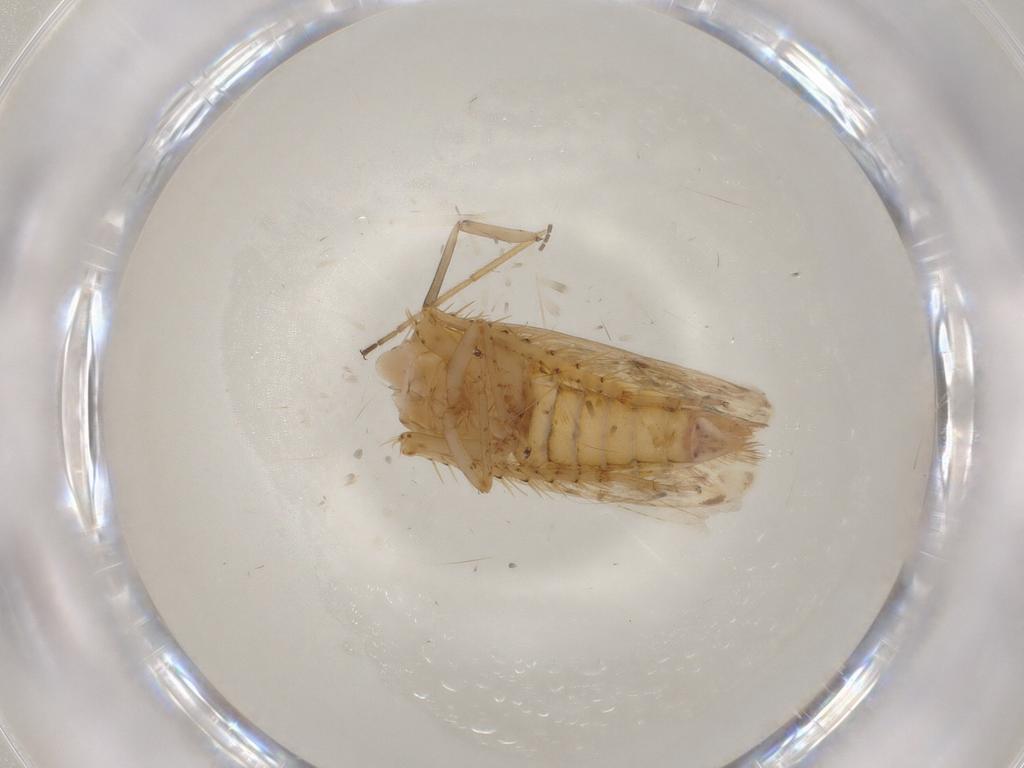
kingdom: Animalia
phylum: Arthropoda
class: Insecta
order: Hemiptera
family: Cicadellidae
